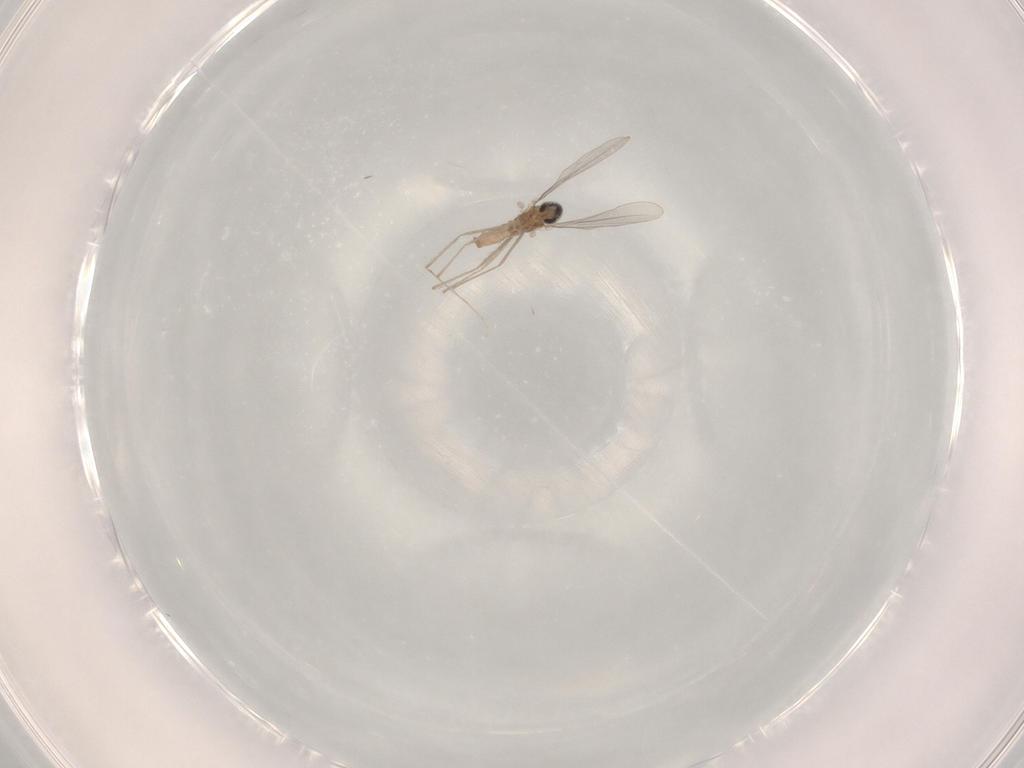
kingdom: Animalia
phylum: Arthropoda
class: Insecta
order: Diptera
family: Cecidomyiidae
